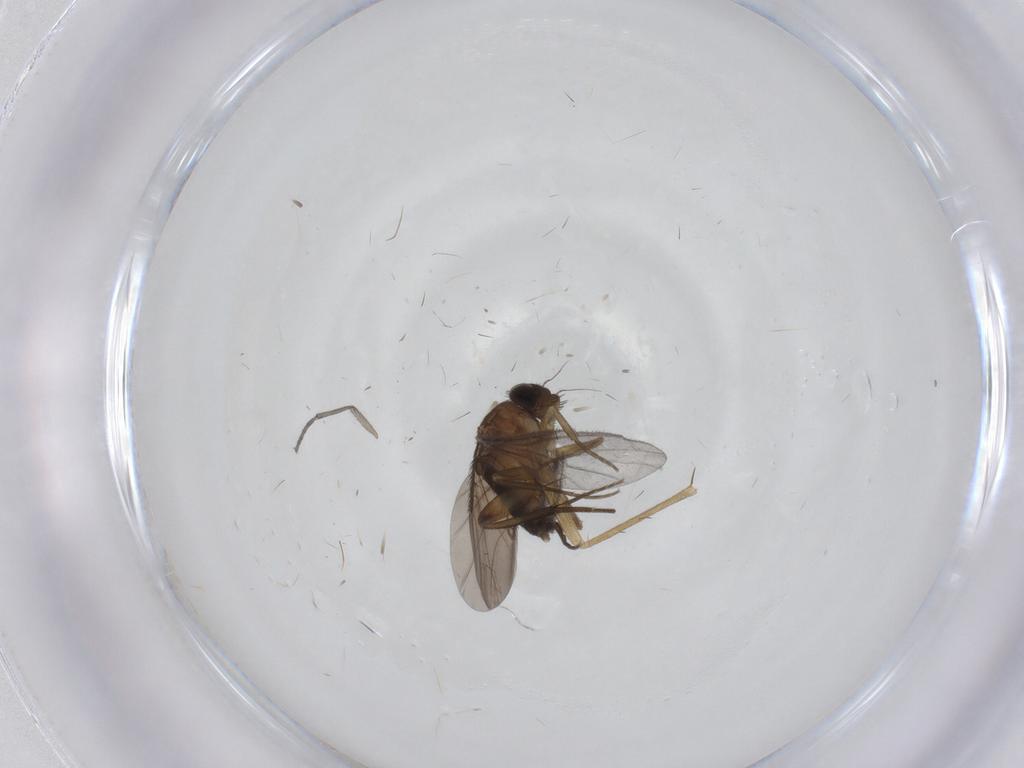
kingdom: Animalia
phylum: Arthropoda
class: Insecta
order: Diptera
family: Phoridae
